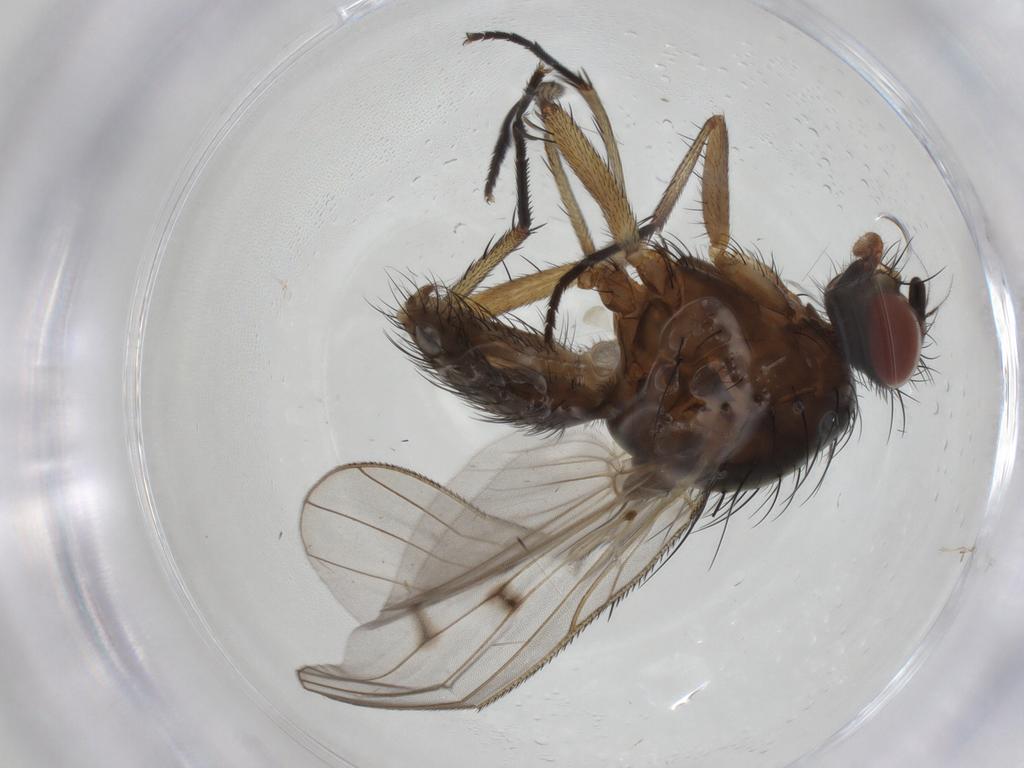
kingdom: Animalia
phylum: Arthropoda
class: Insecta
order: Diptera
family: Anthomyiidae
